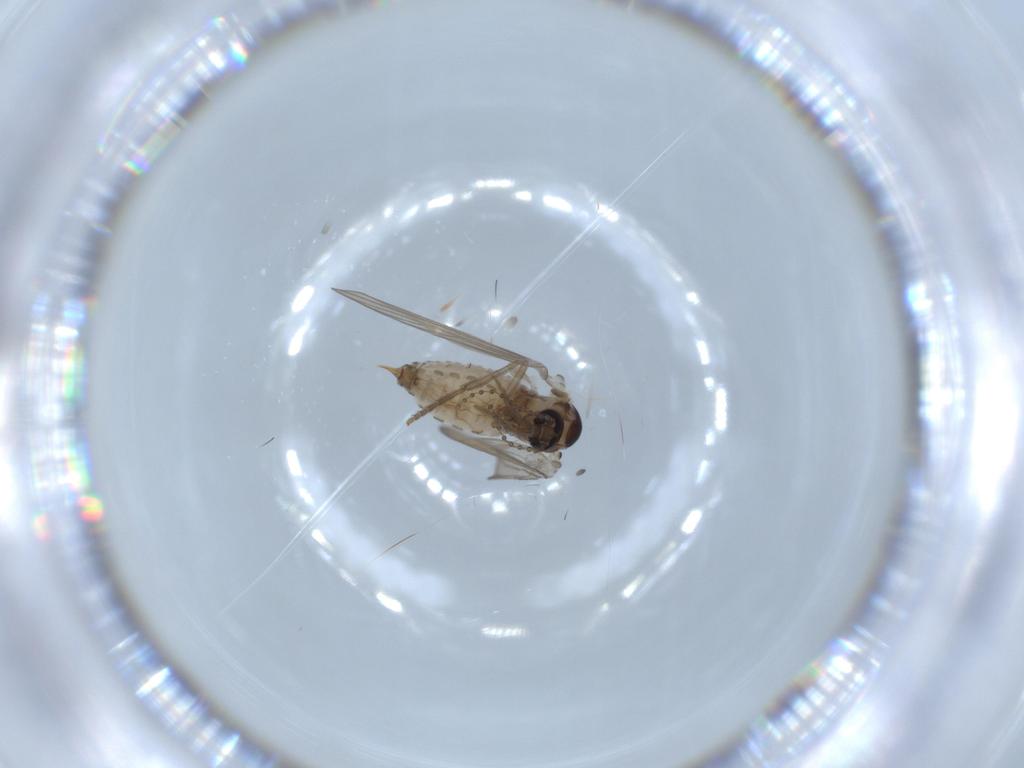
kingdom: Animalia
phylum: Arthropoda
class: Insecta
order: Diptera
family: Psychodidae
